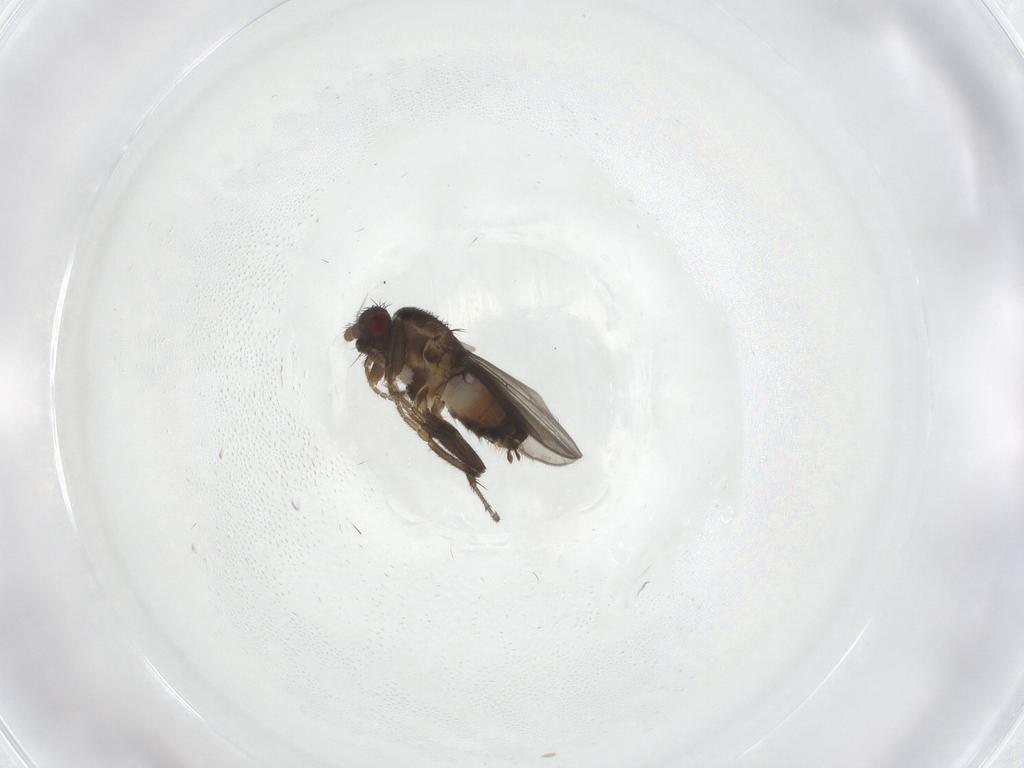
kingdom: Animalia
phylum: Arthropoda
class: Insecta
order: Diptera
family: Sphaeroceridae
